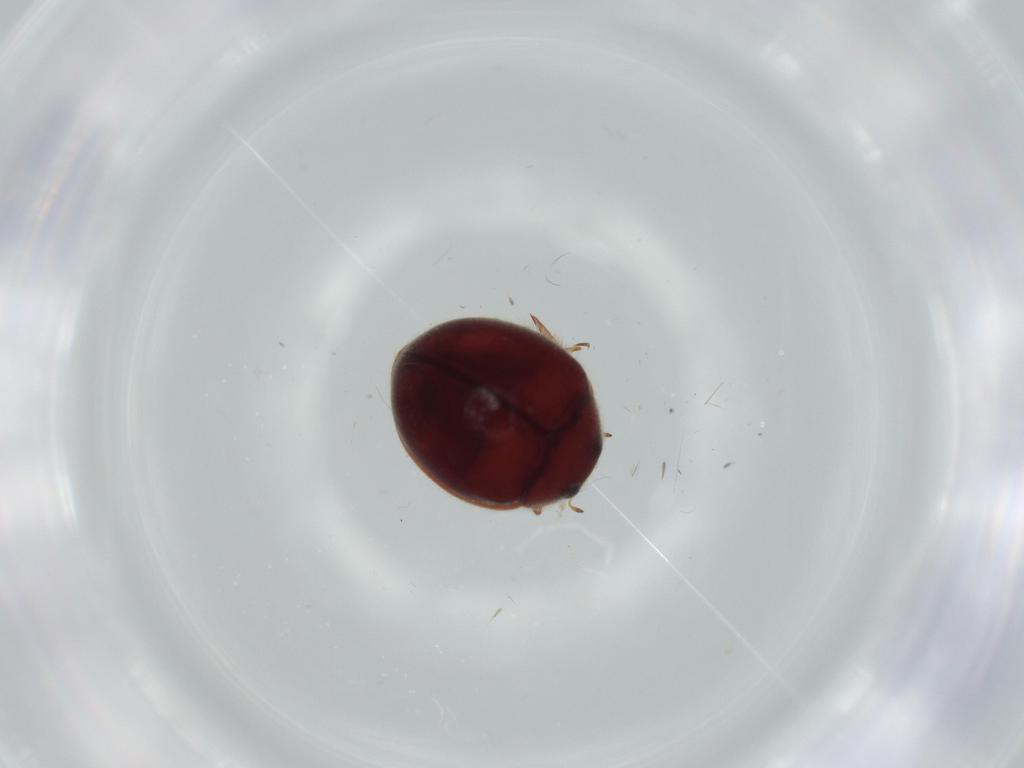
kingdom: Animalia
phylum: Arthropoda
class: Insecta
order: Coleoptera
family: Coccinellidae
